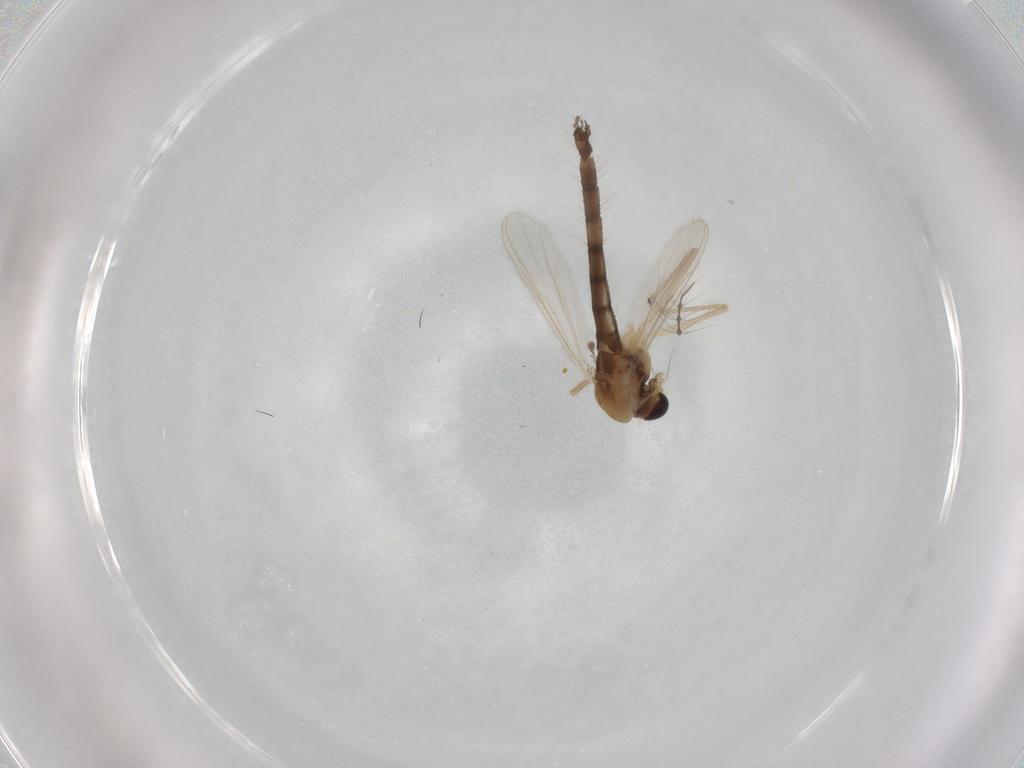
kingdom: Animalia
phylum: Arthropoda
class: Insecta
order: Diptera
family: Chironomidae
